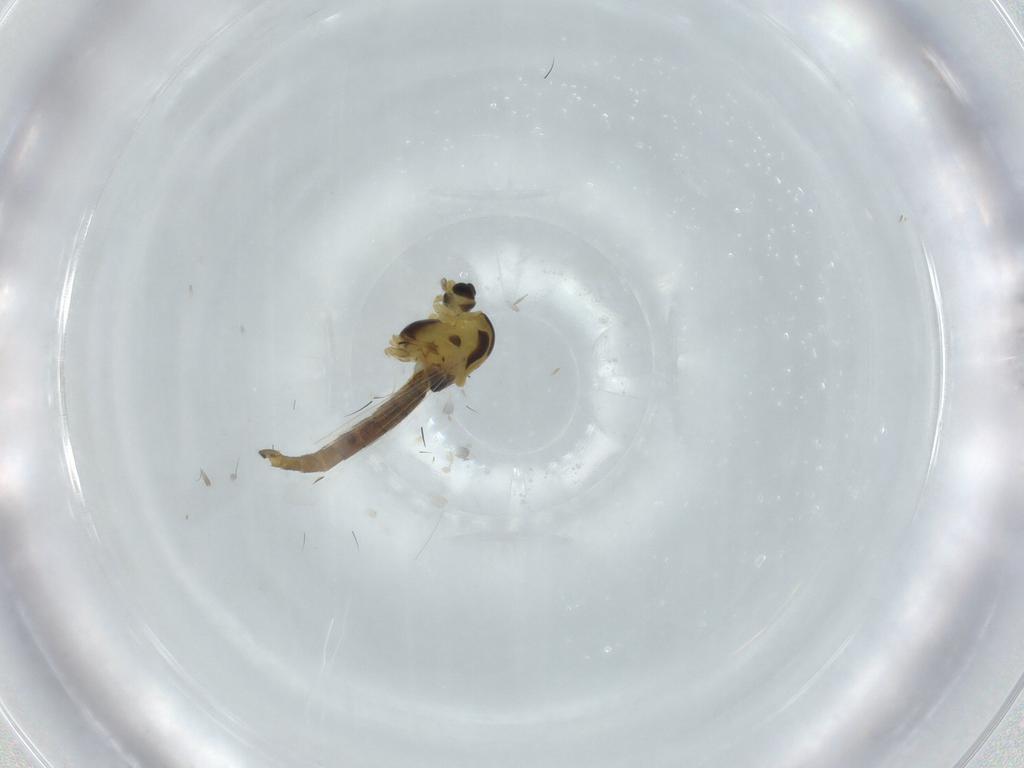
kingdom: Animalia
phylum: Arthropoda
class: Insecta
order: Diptera
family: Chironomidae
